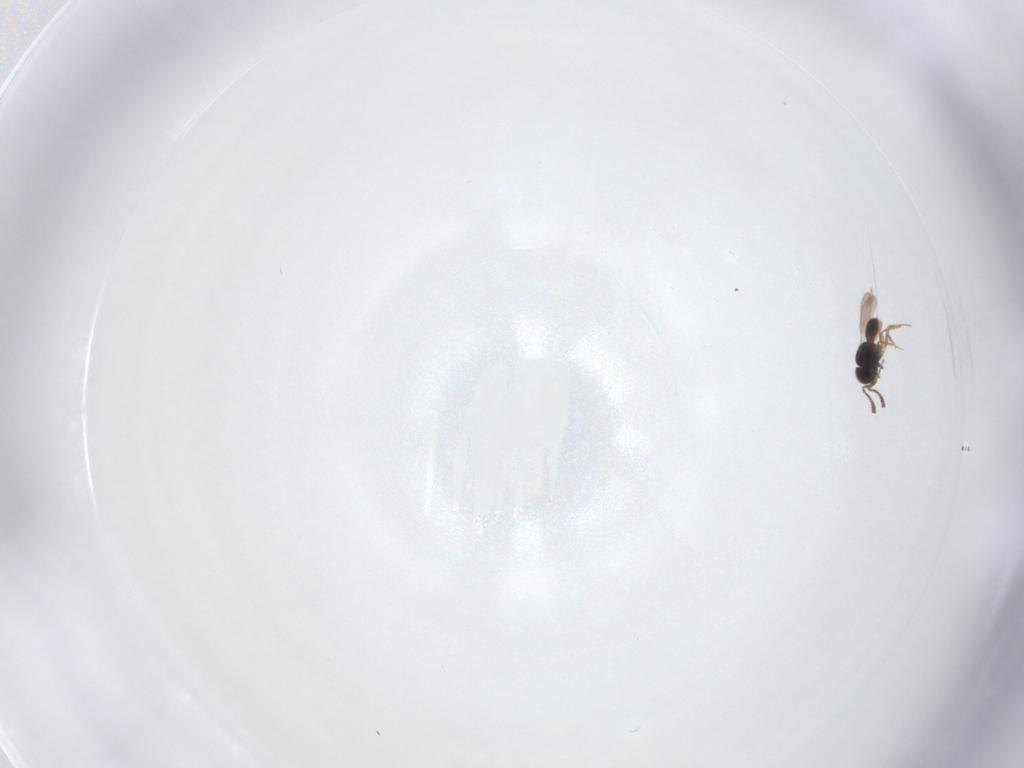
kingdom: Animalia
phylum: Arthropoda
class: Insecta
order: Hymenoptera
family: Scelionidae
